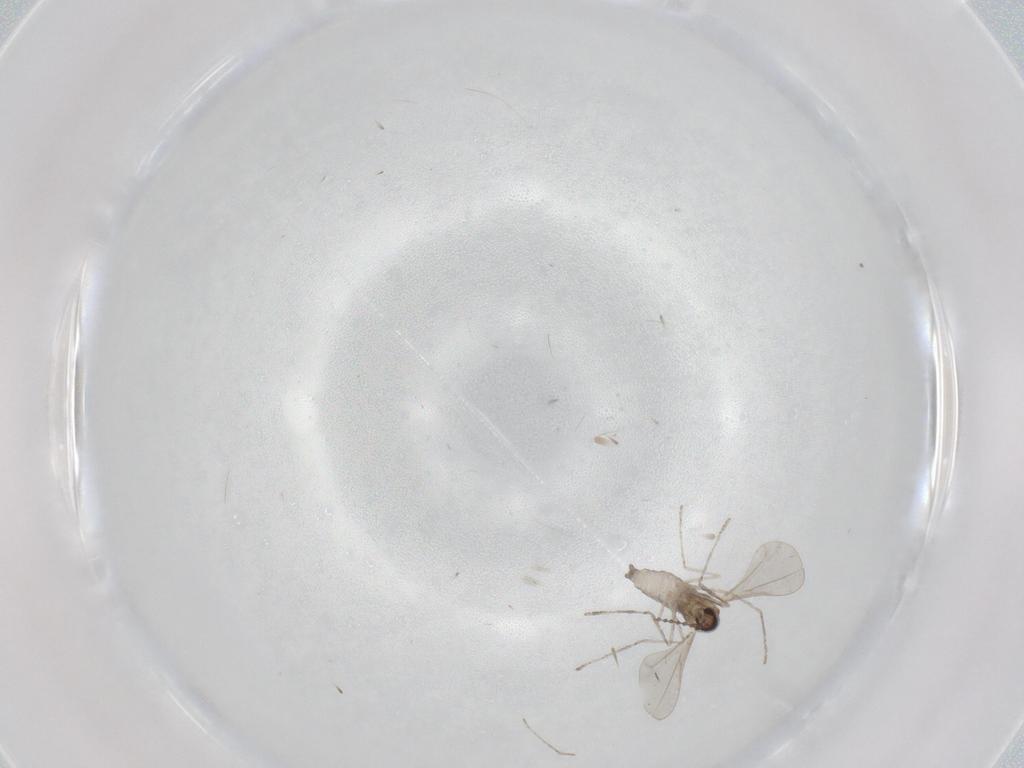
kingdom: Animalia
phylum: Arthropoda
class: Insecta
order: Diptera
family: Cecidomyiidae
